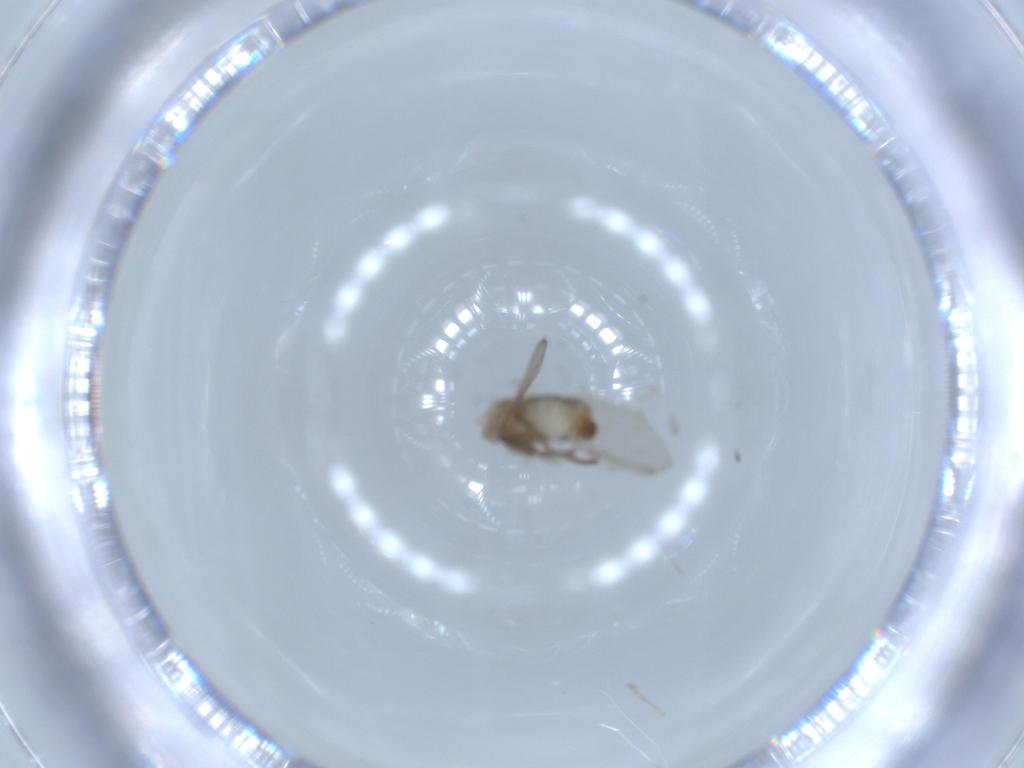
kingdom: Animalia
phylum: Arthropoda
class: Insecta
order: Diptera
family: Psychodidae
